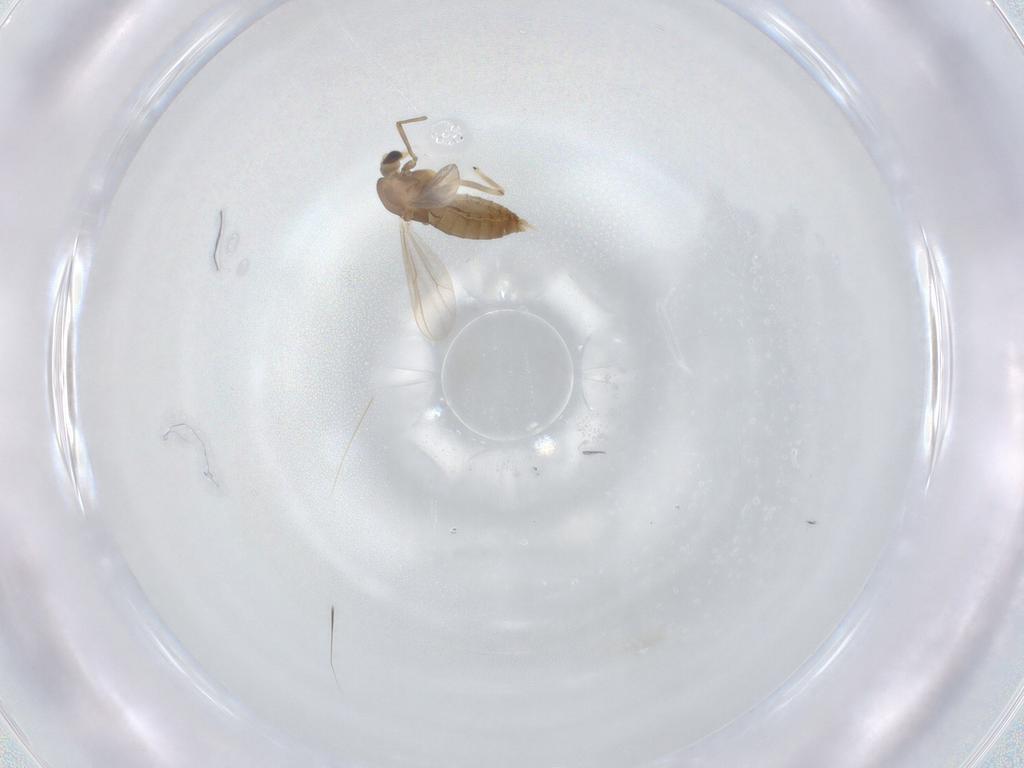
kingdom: Animalia
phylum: Arthropoda
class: Insecta
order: Diptera
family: Chironomidae
